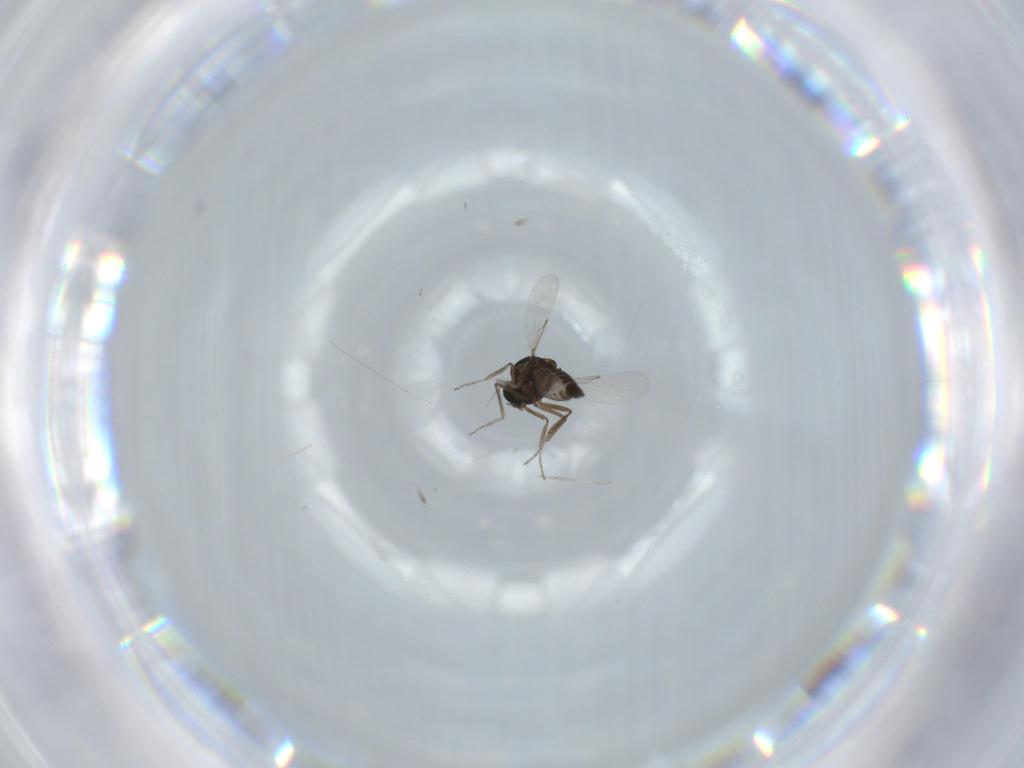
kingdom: Animalia
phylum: Arthropoda
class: Insecta
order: Diptera
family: Cecidomyiidae
